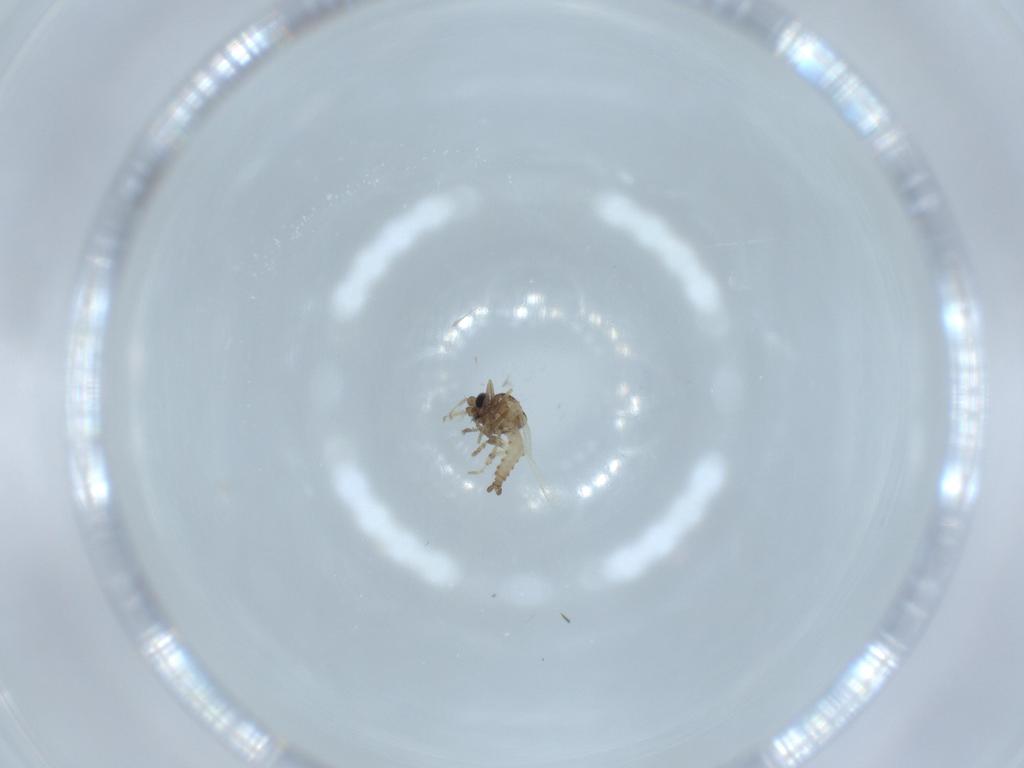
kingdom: Animalia
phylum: Arthropoda
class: Insecta
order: Diptera
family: Ceratopogonidae
